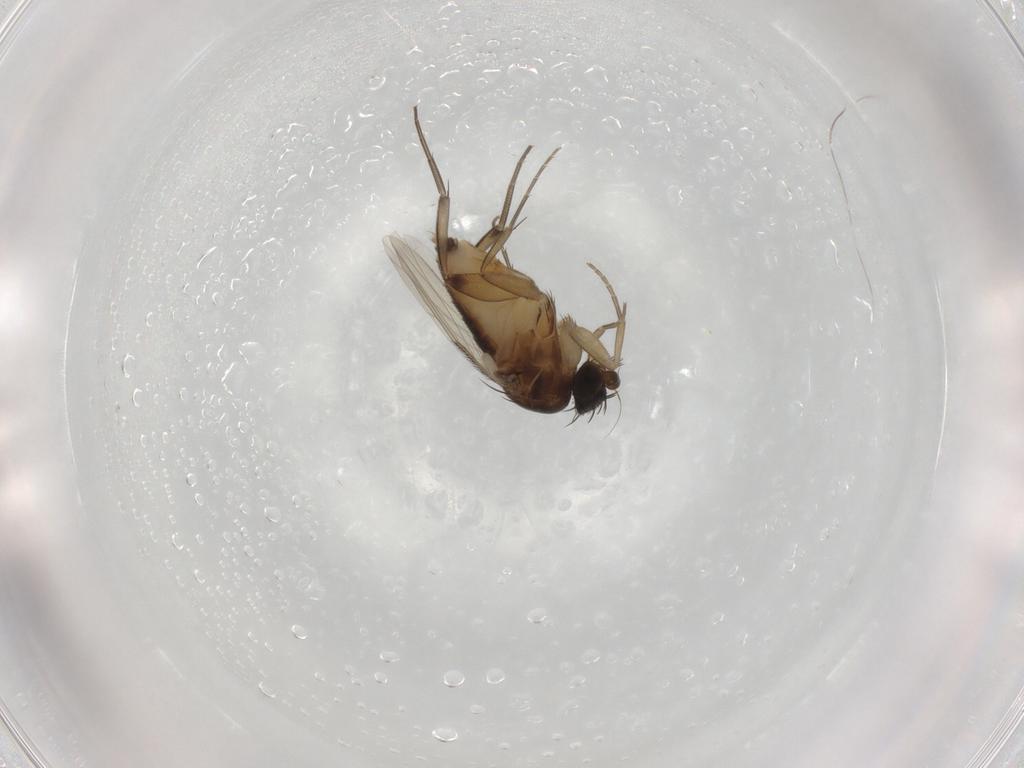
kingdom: Animalia
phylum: Arthropoda
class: Insecta
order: Diptera
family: Phoridae
